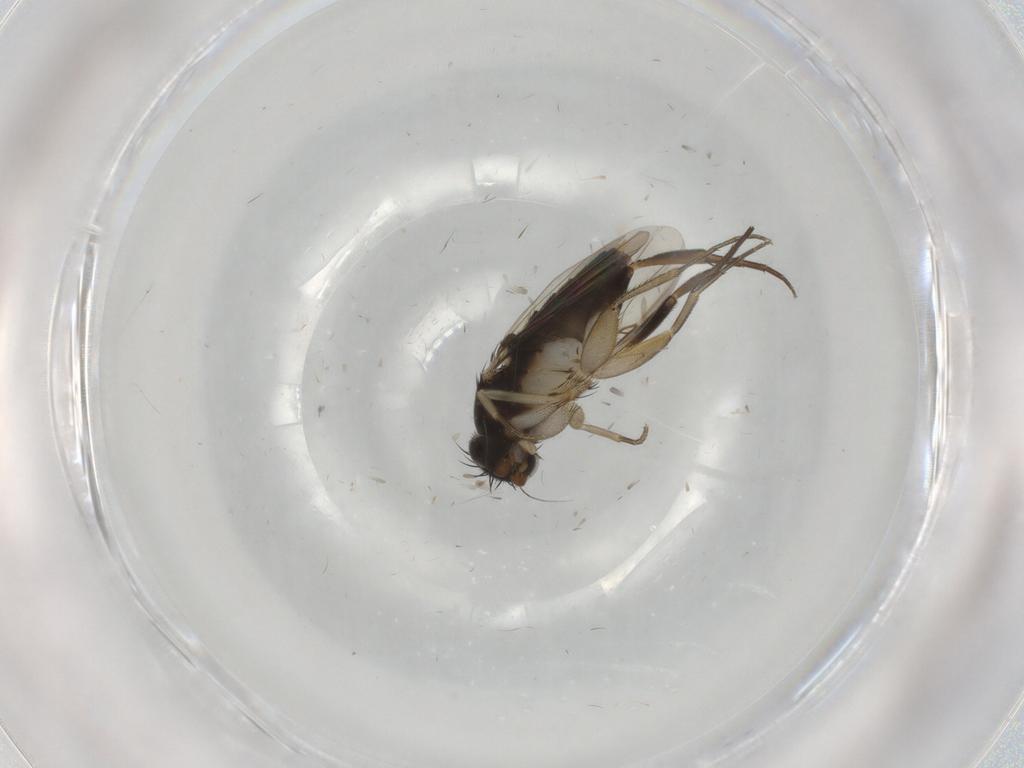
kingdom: Animalia
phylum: Arthropoda
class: Insecta
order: Diptera
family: Phoridae
